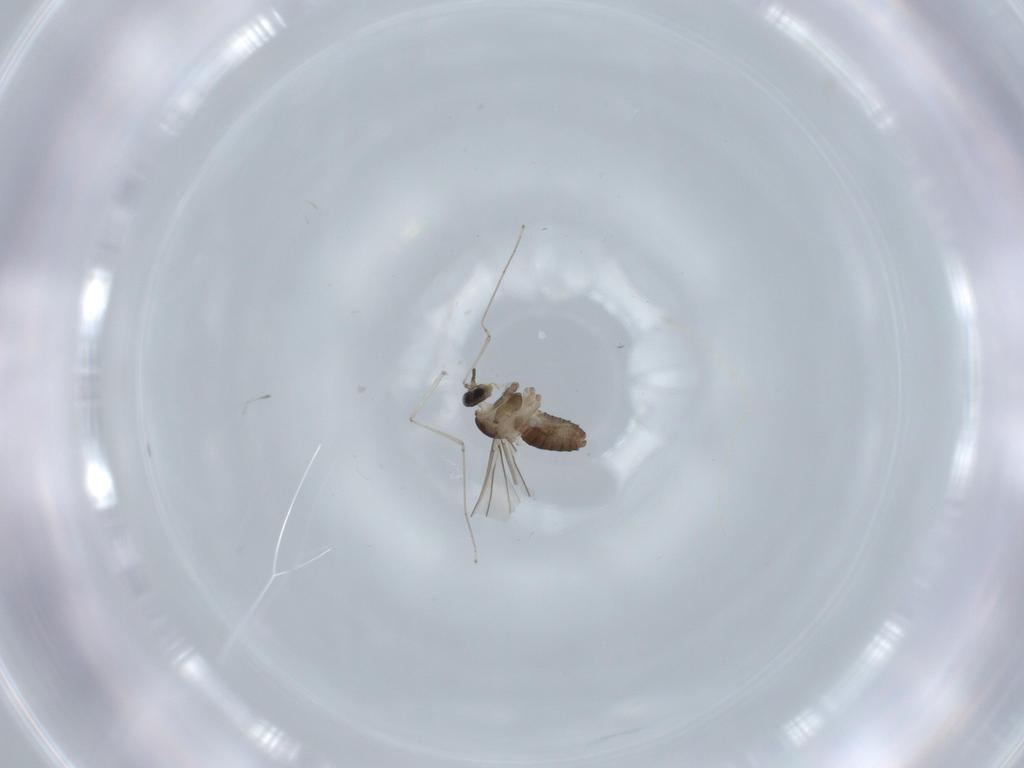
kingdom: Animalia
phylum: Arthropoda
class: Insecta
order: Diptera
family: Cecidomyiidae
